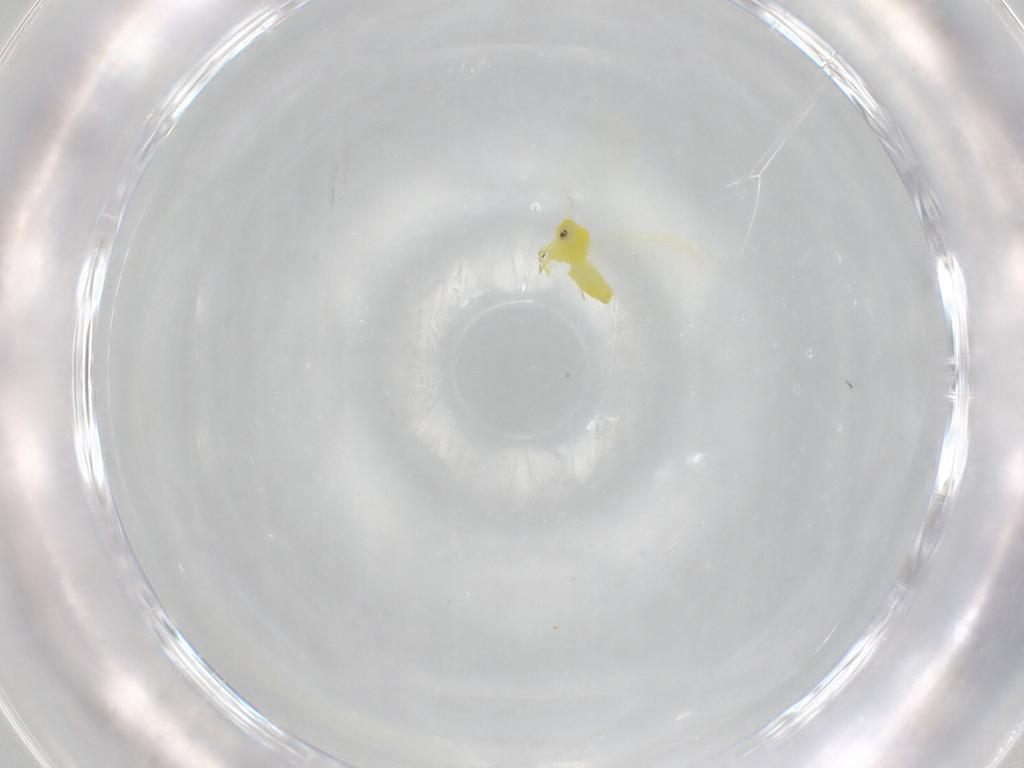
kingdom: Animalia
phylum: Arthropoda
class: Insecta
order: Hemiptera
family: Aleyrodidae
